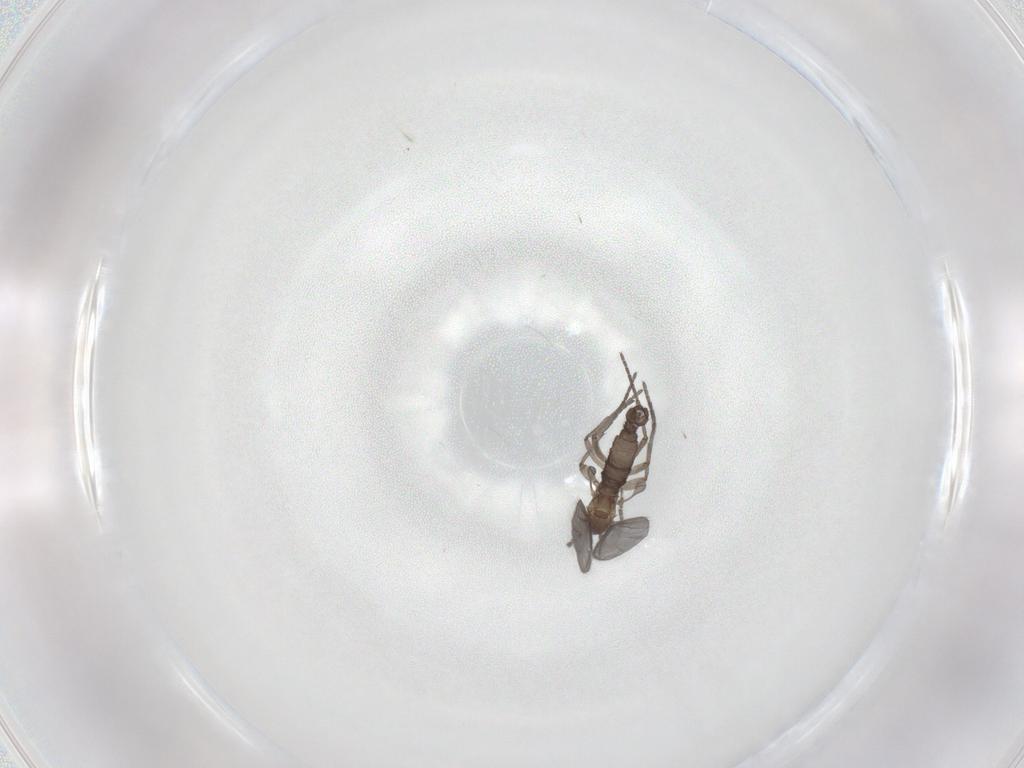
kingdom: Animalia
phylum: Arthropoda
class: Insecta
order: Diptera
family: Sciaridae
